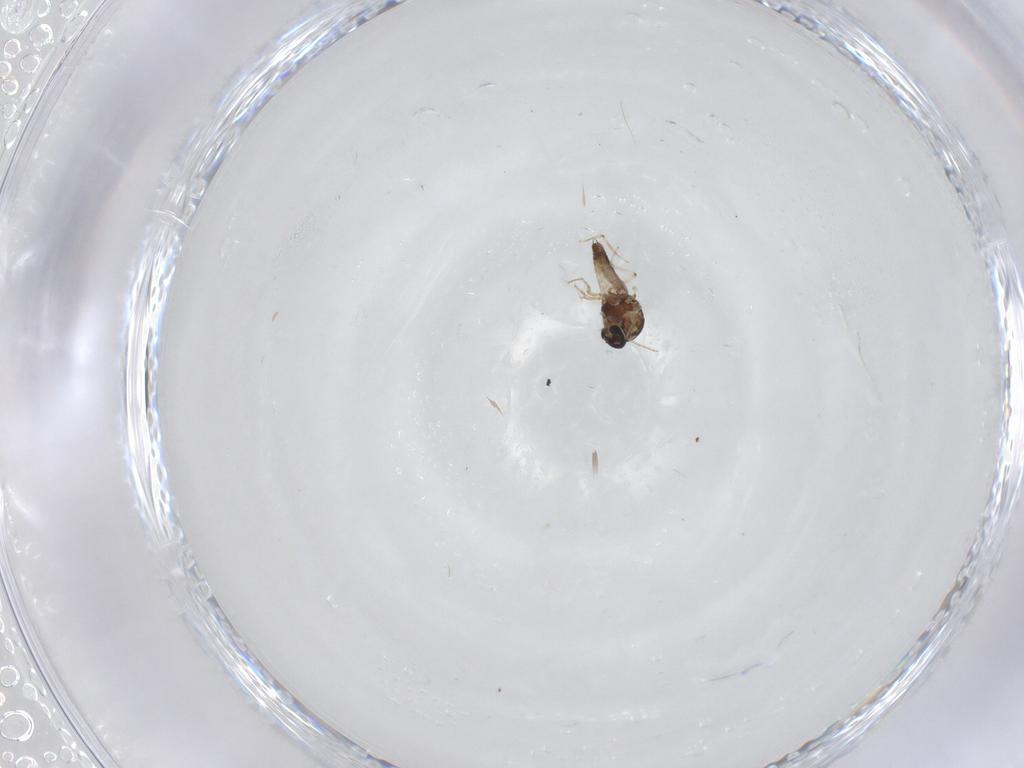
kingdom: Animalia
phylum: Arthropoda
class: Insecta
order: Diptera
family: Ceratopogonidae
